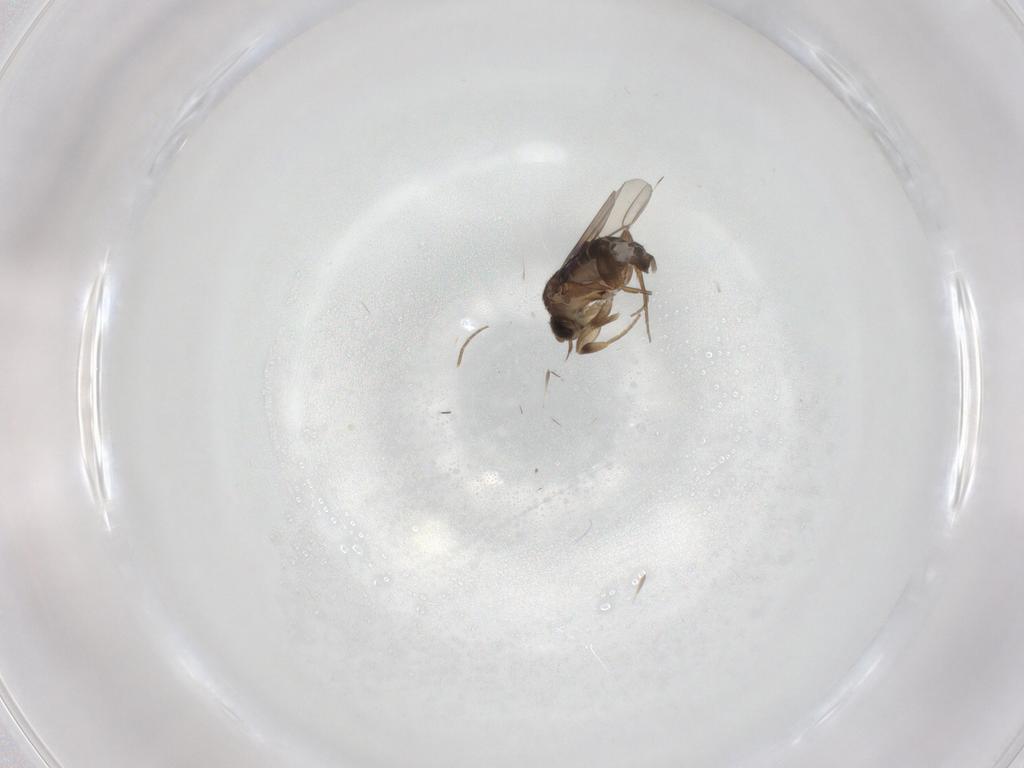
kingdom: Animalia
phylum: Arthropoda
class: Insecta
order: Diptera
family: Phoridae
